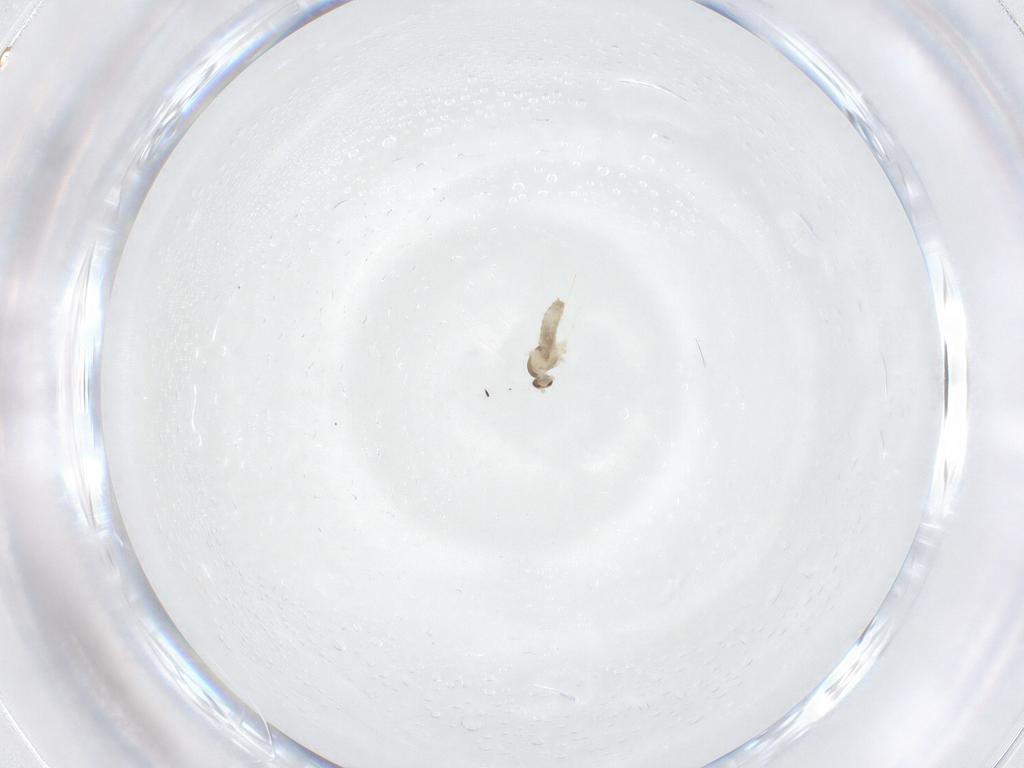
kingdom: Animalia
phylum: Arthropoda
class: Insecta
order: Diptera
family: Cecidomyiidae
